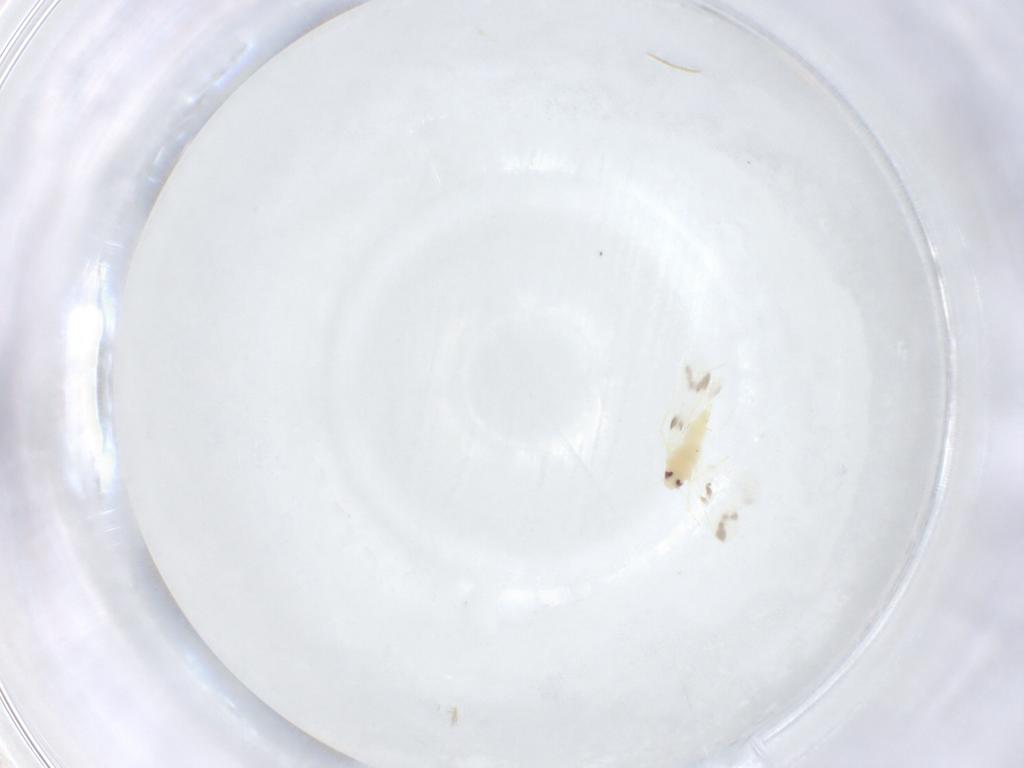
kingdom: Animalia
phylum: Arthropoda
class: Insecta
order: Hemiptera
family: Aleyrodidae
